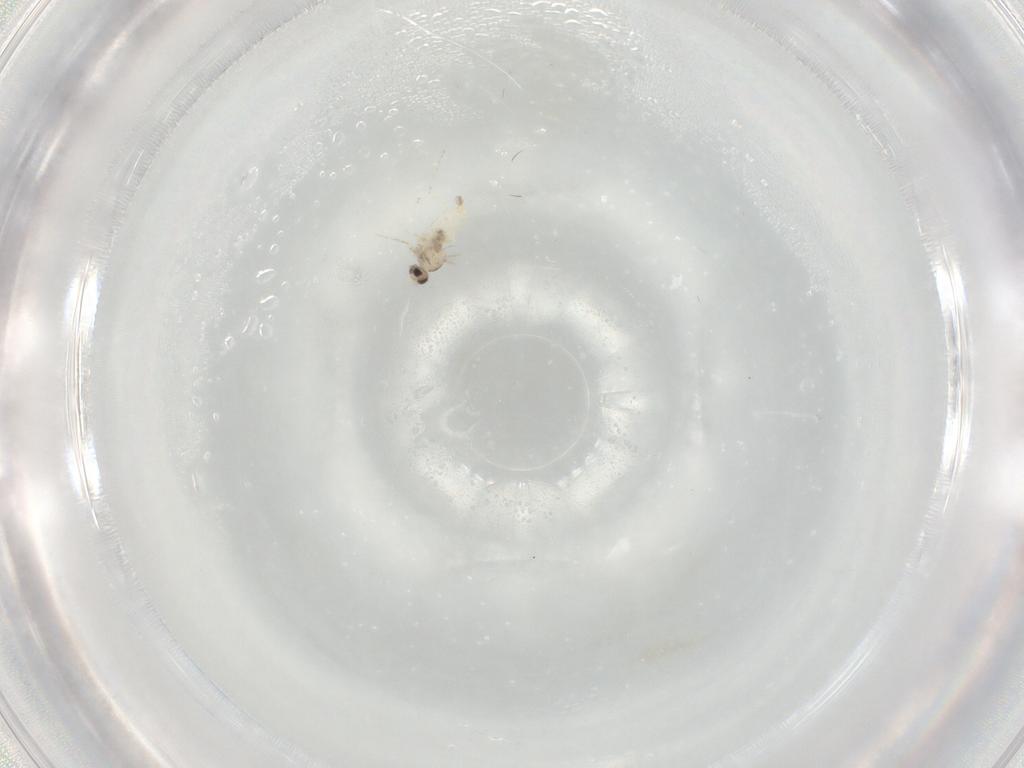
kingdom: Animalia
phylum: Arthropoda
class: Insecta
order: Diptera
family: Cecidomyiidae
